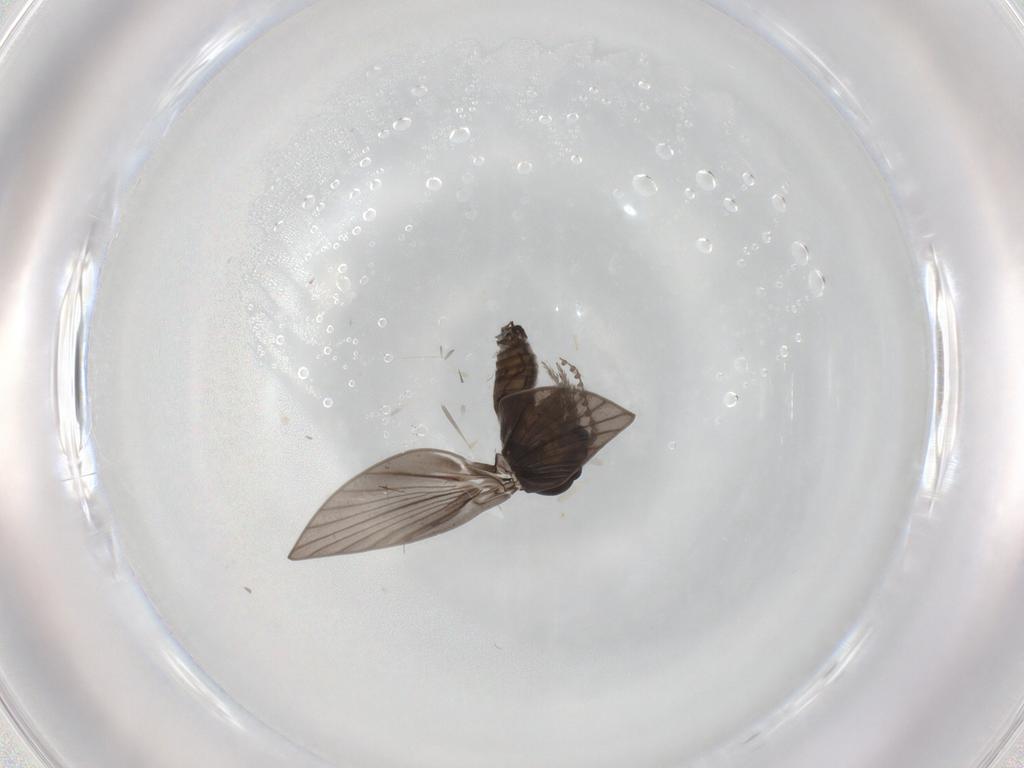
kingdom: Animalia
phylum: Arthropoda
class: Insecta
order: Diptera
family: Psychodidae
